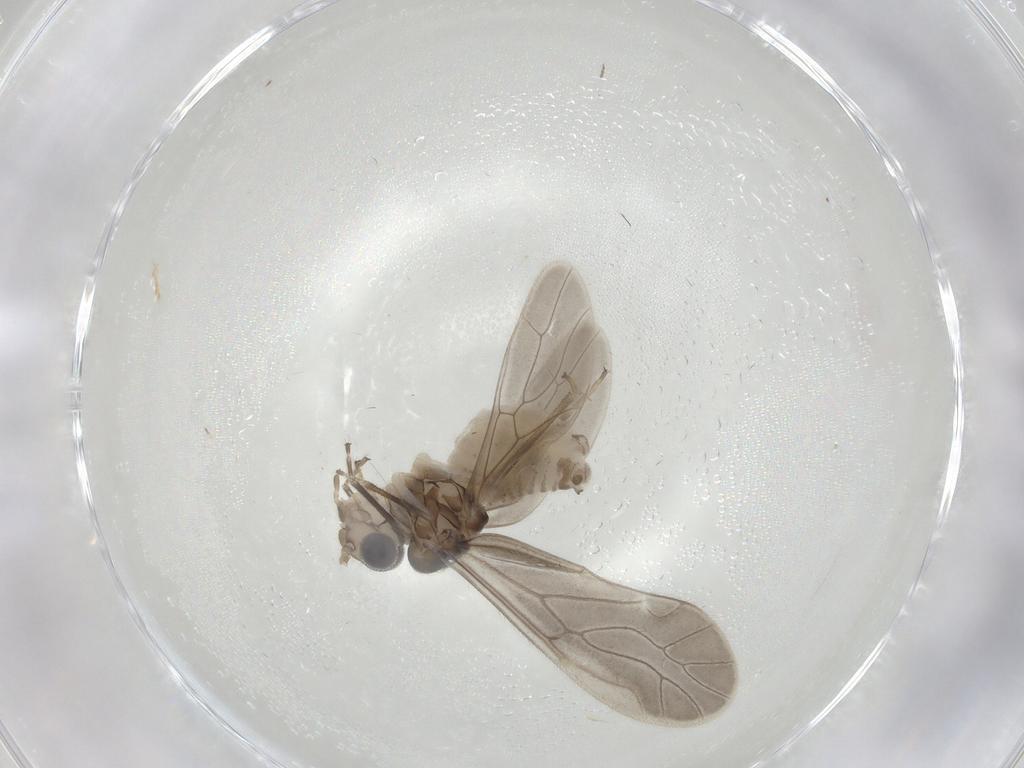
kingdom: Animalia
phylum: Arthropoda
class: Insecta
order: Psocodea
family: Caeciliusidae
